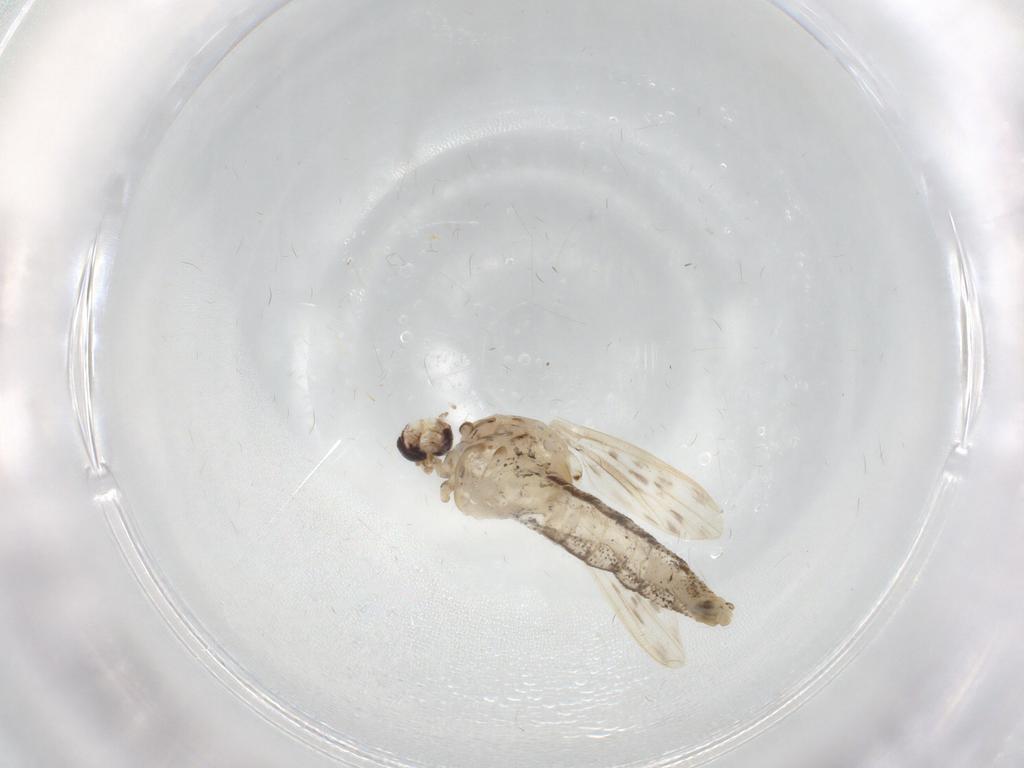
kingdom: Animalia
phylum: Arthropoda
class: Insecta
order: Diptera
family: Chaoboridae
